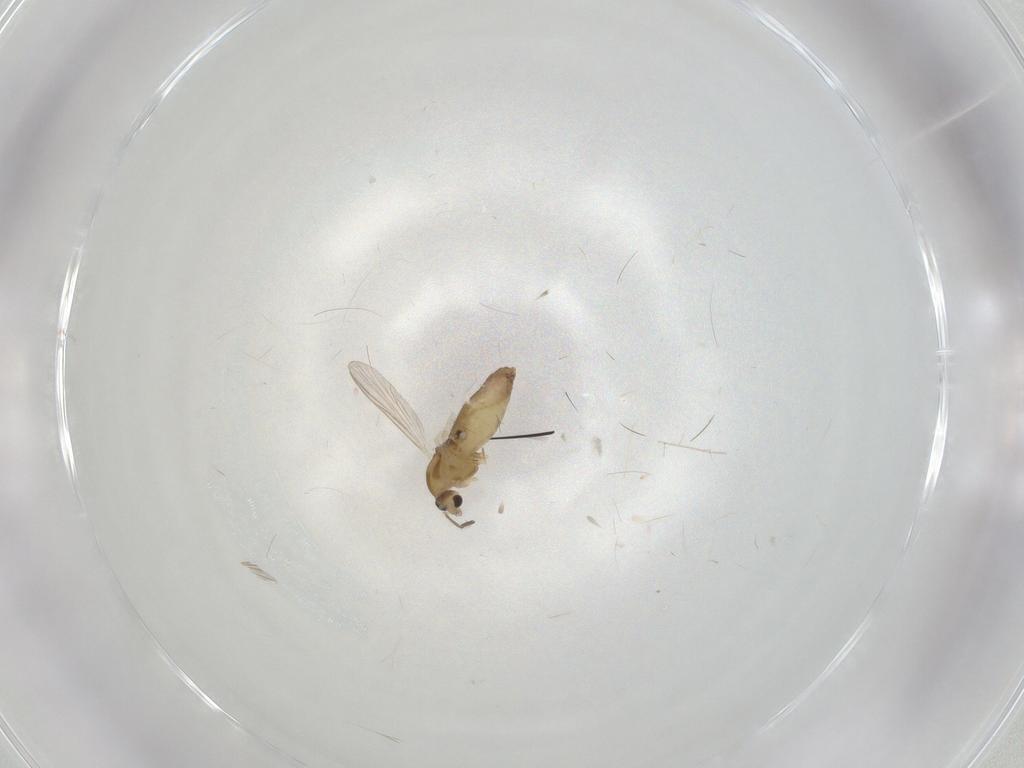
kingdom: Animalia
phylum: Arthropoda
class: Insecta
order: Diptera
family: Chironomidae
